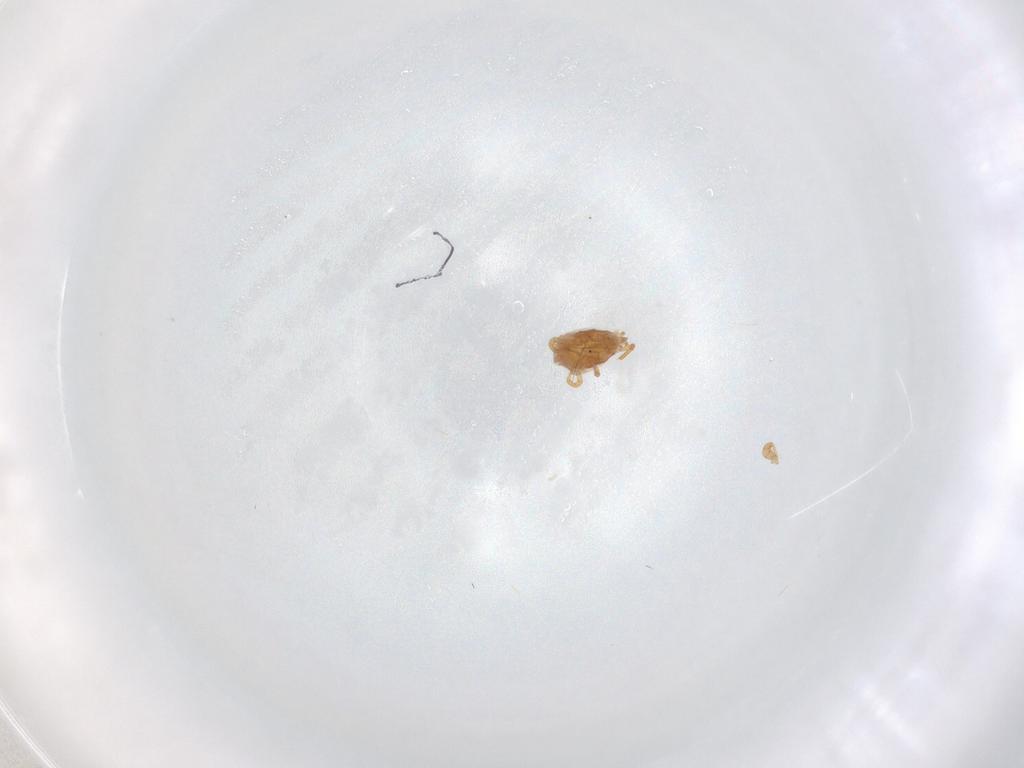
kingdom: Animalia
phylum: Arthropoda
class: Arachnida
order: Mesostigmata
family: Parasitidae
